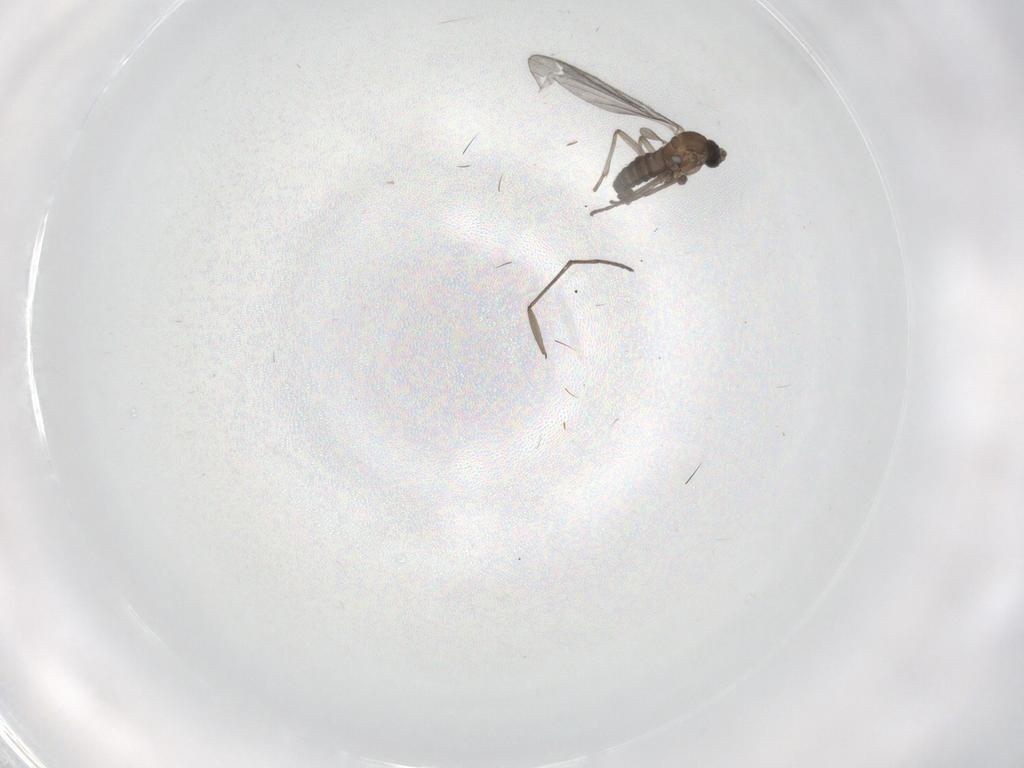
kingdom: Animalia
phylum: Arthropoda
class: Insecta
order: Diptera
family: Sciaridae
